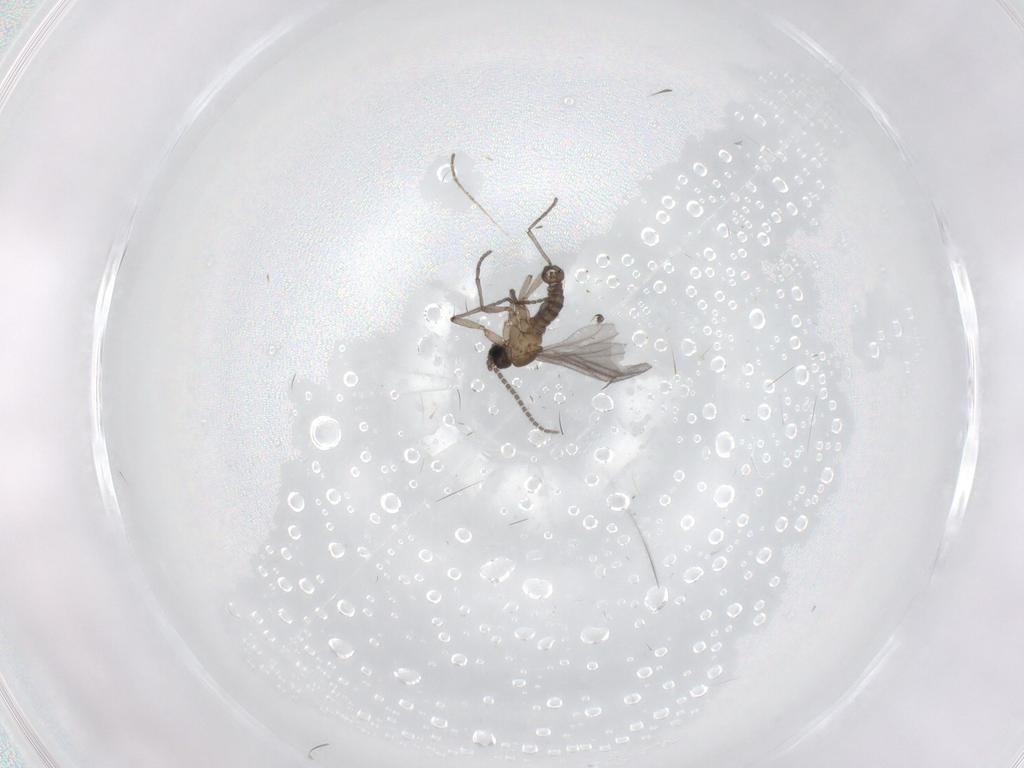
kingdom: Animalia
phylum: Arthropoda
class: Insecta
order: Diptera
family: Sciaridae
